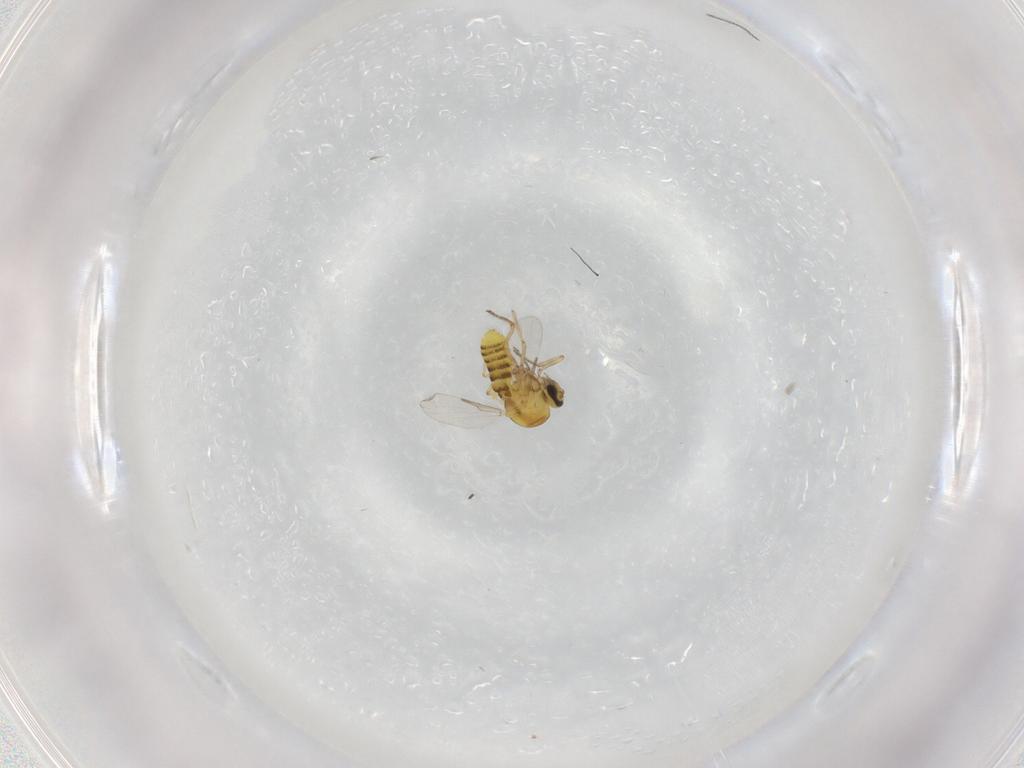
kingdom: Animalia
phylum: Arthropoda
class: Insecta
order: Diptera
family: Ceratopogonidae
